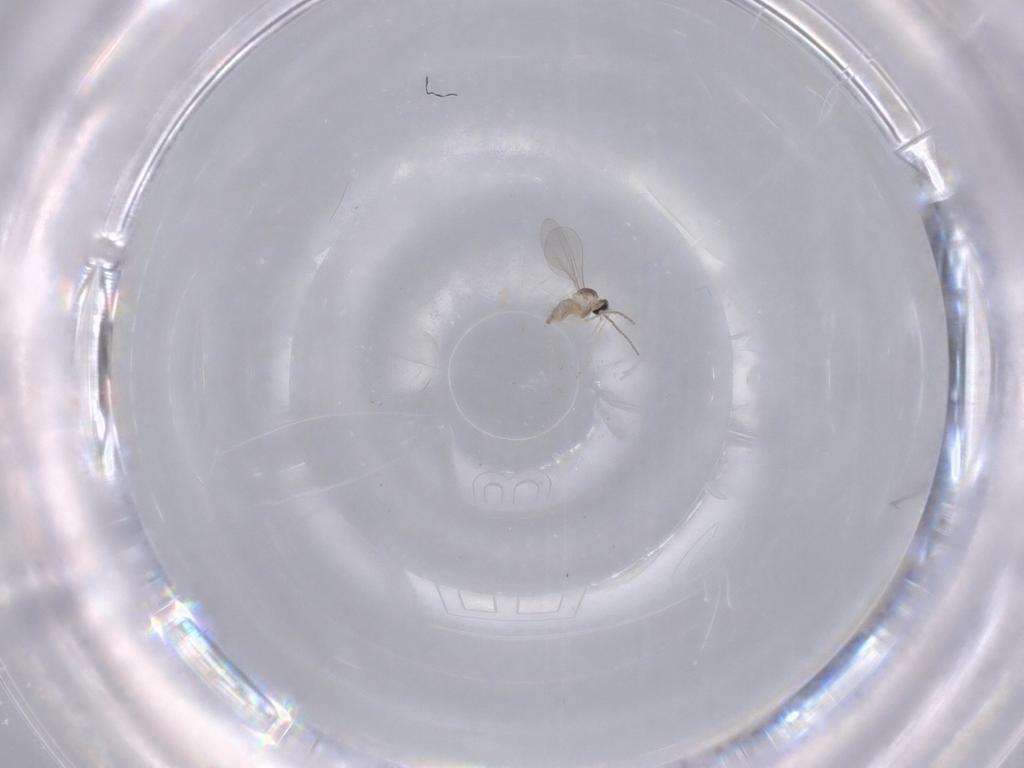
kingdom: Animalia
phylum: Arthropoda
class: Insecta
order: Diptera
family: Ceratopogonidae
